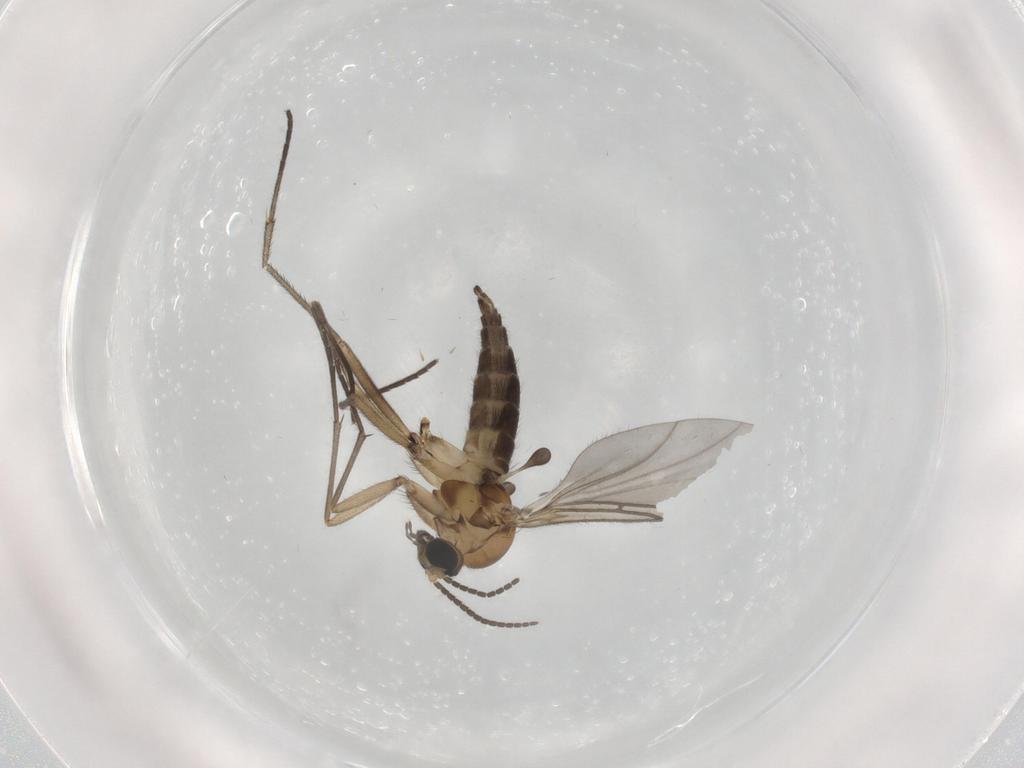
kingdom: Animalia
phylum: Arthropoda
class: Insecta
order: Diptera
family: Sciaridae
